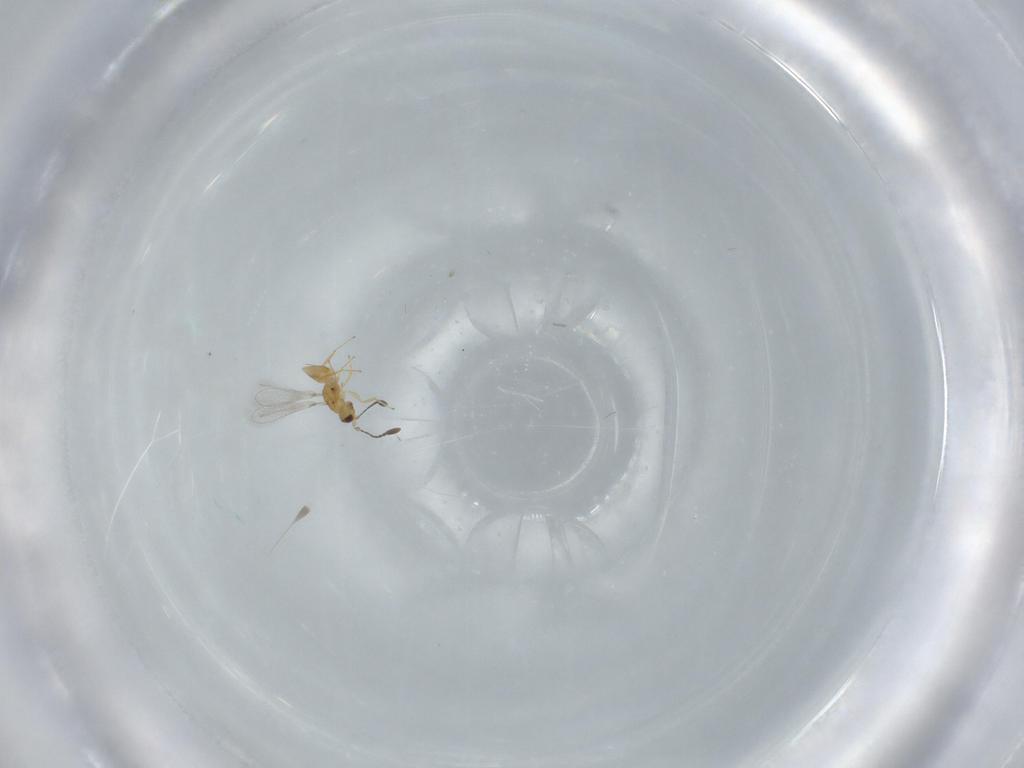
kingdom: Animalia
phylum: Arthropoda
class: Insecta
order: Hymenoptera
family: Mymaridae
